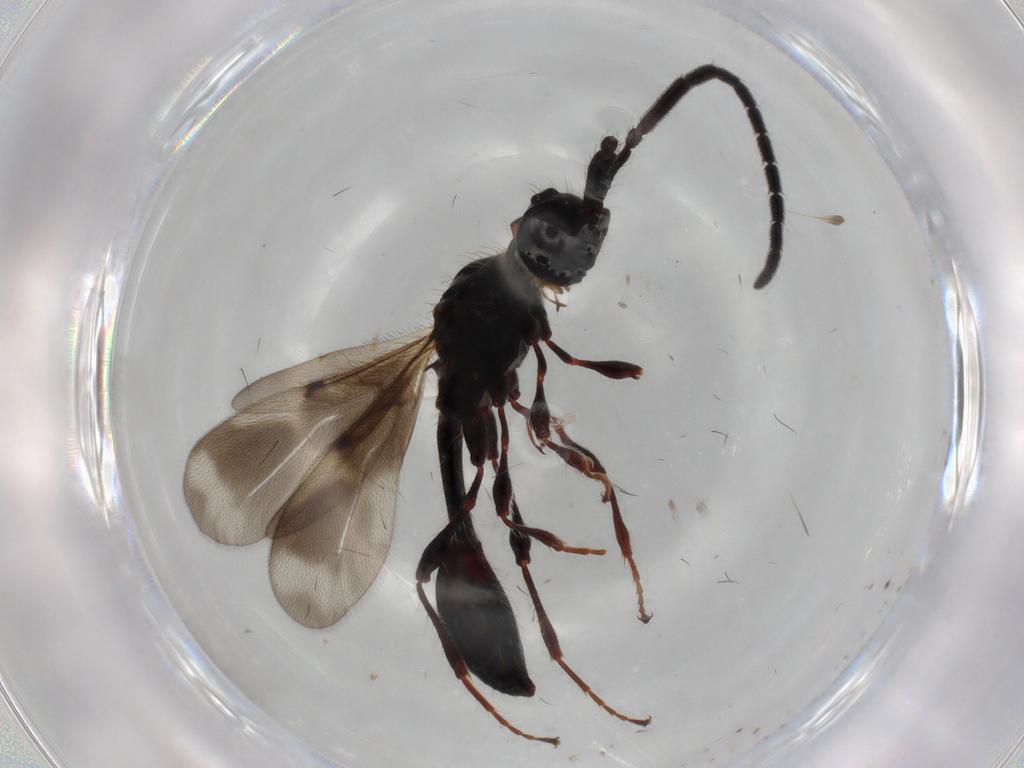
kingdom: Animalia
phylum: Arthropoda
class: Insecta
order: Hymenoptera
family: Diapriidae
